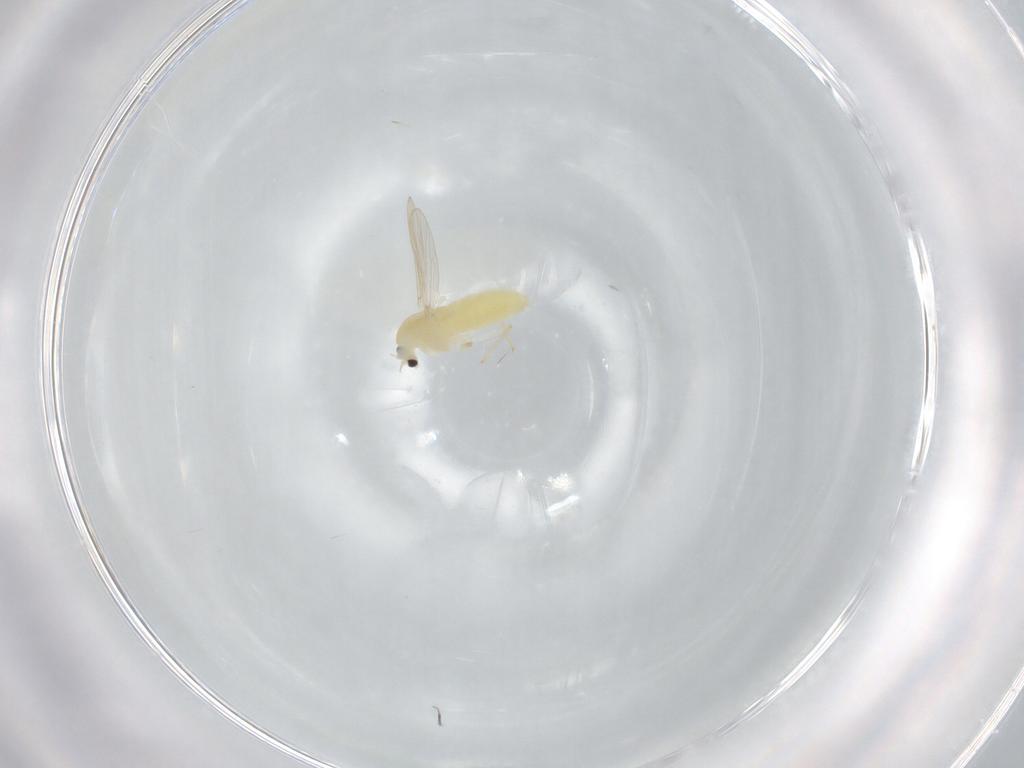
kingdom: Animalia
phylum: Arthropoda
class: Insecta
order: Diptera
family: Chironomidae
